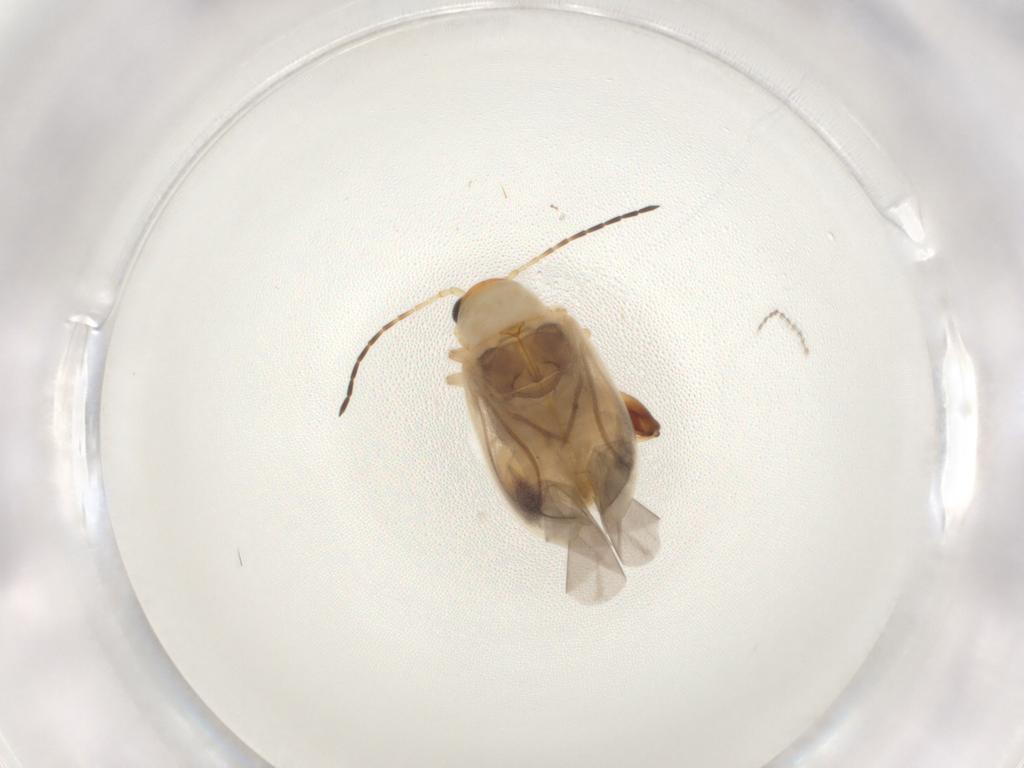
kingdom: Animalia
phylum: Arthropoda
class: Insecta
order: Coleoptera
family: Chrysomelidae
